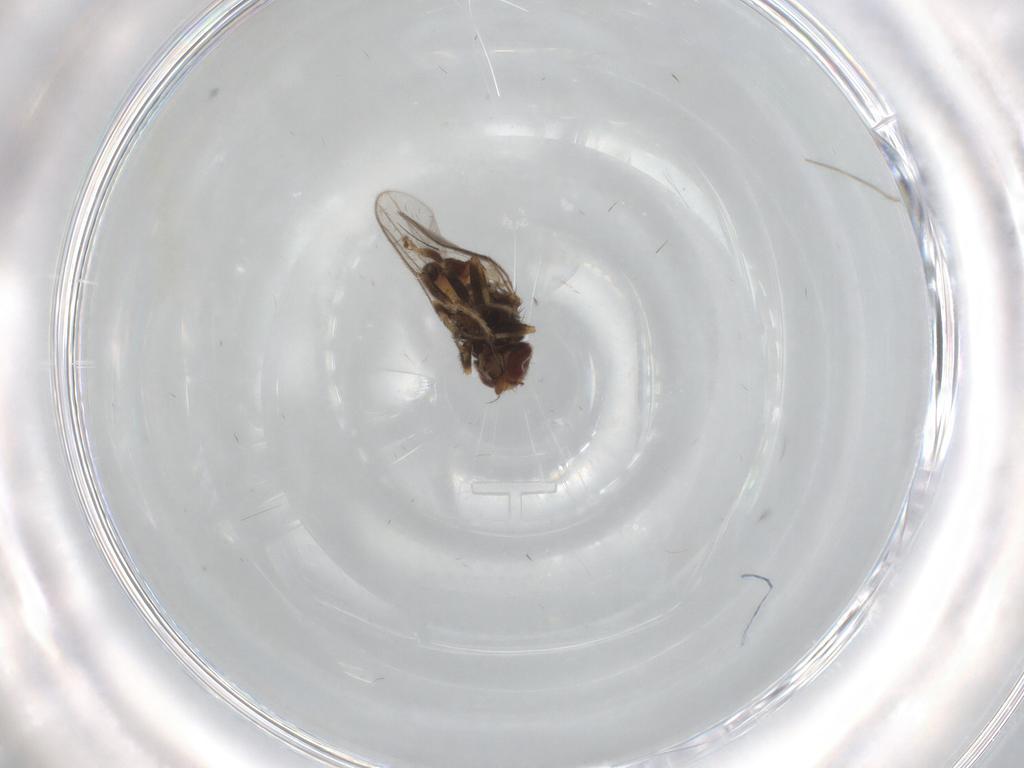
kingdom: Animalia
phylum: Arthropoda
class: Insecta
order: Diptera
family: Chloropidae
